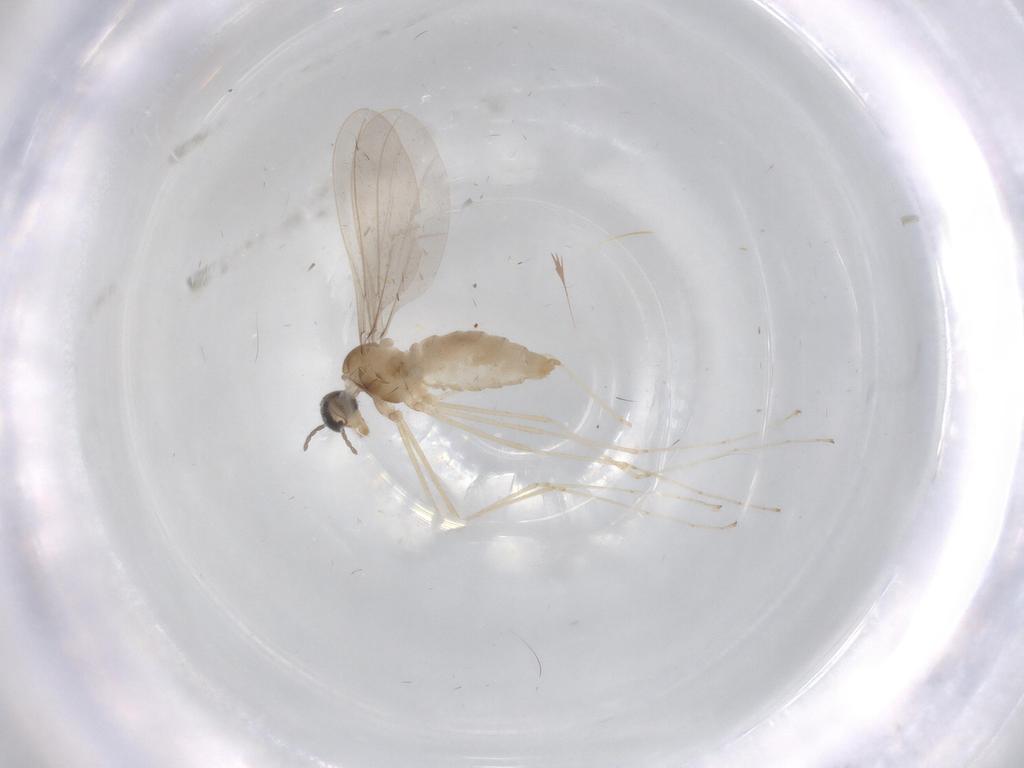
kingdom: Animalia
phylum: Arthropoda
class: Insecta
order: Diptera
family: Cecidomyiidae
